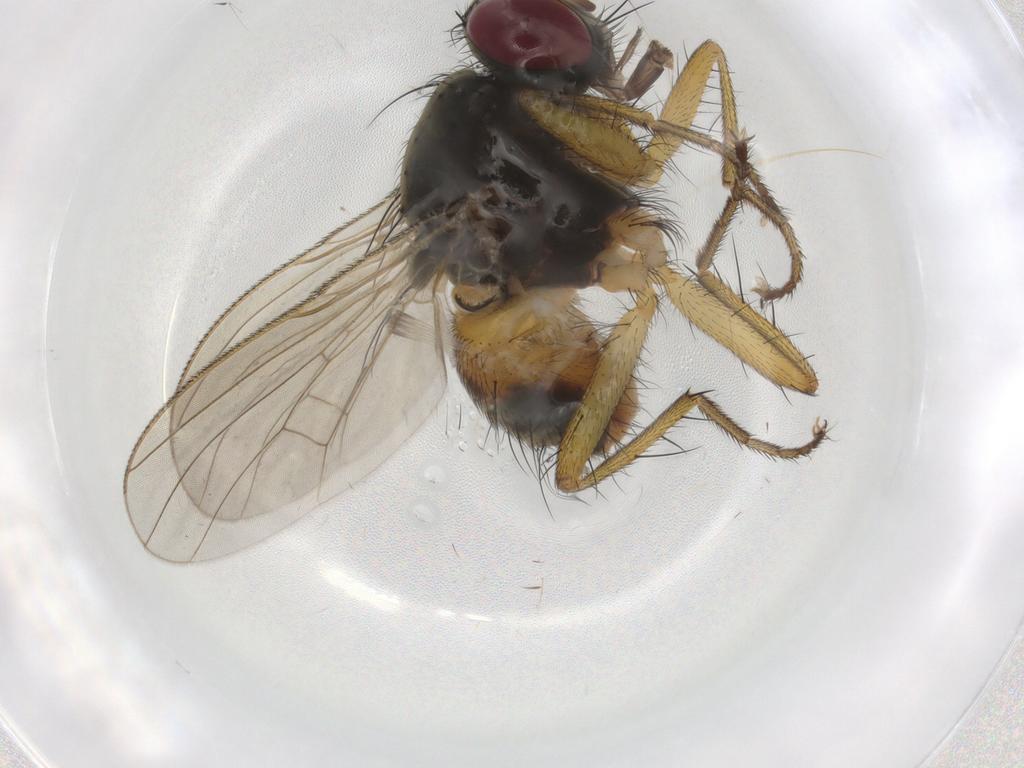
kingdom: Animalia
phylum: Arthropoda
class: Insecta
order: Diptera
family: Muscidae
